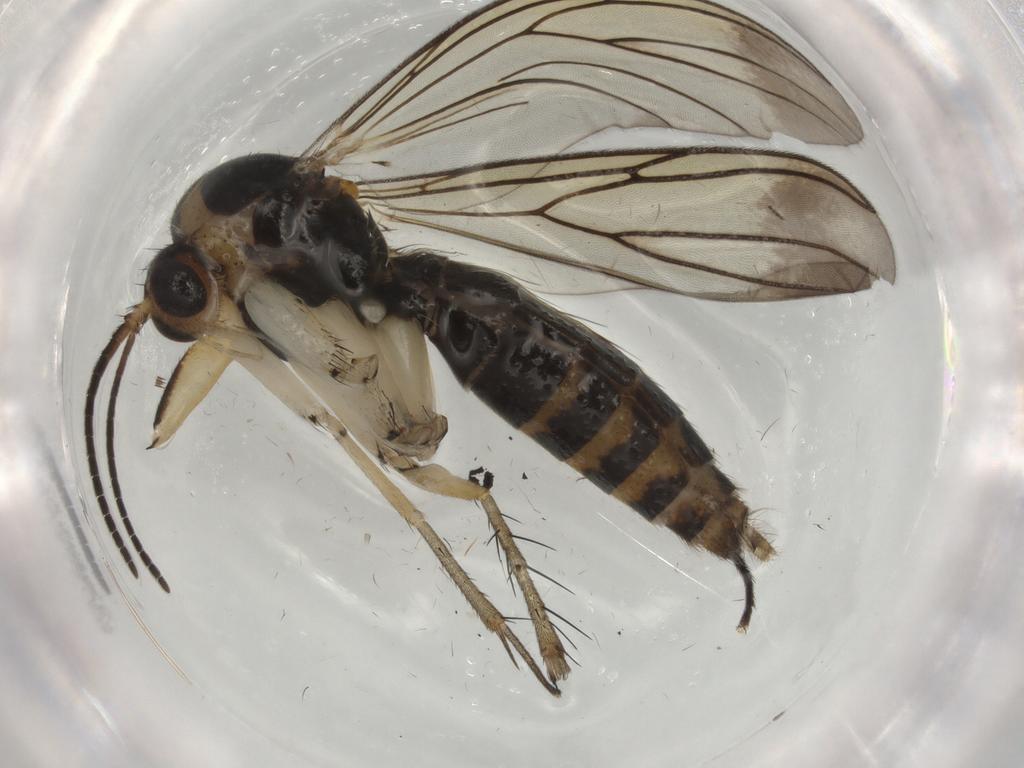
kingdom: Animalia
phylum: Arthropoda
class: Insecta
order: Diptera
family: Mycetophilidae
